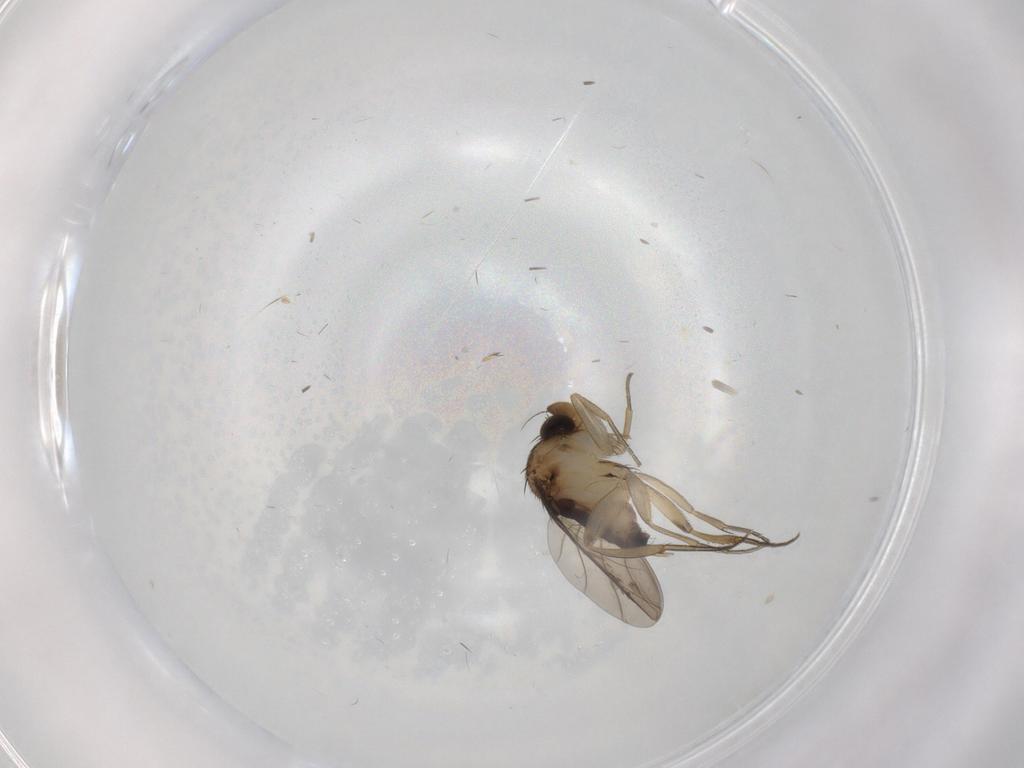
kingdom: Animalia
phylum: Arthropoda
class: Insecta
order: Diptera
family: Phoridae
